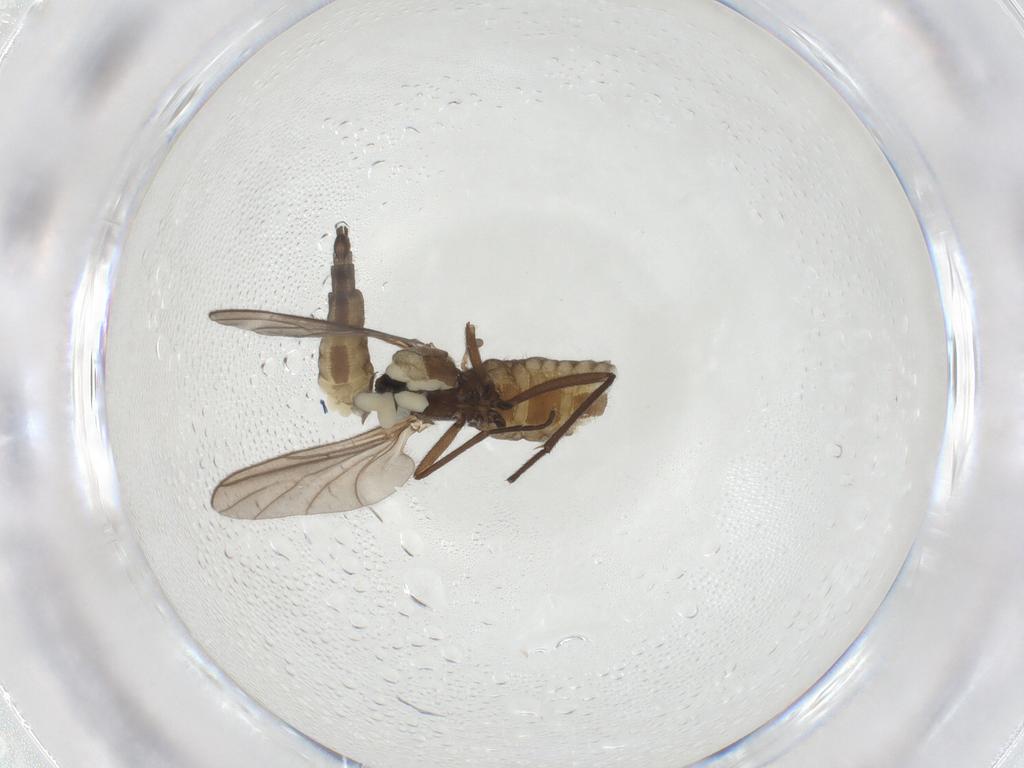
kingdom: Animalia
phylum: Arthropoda
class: Insecta
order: Diptera
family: Sciaridae
